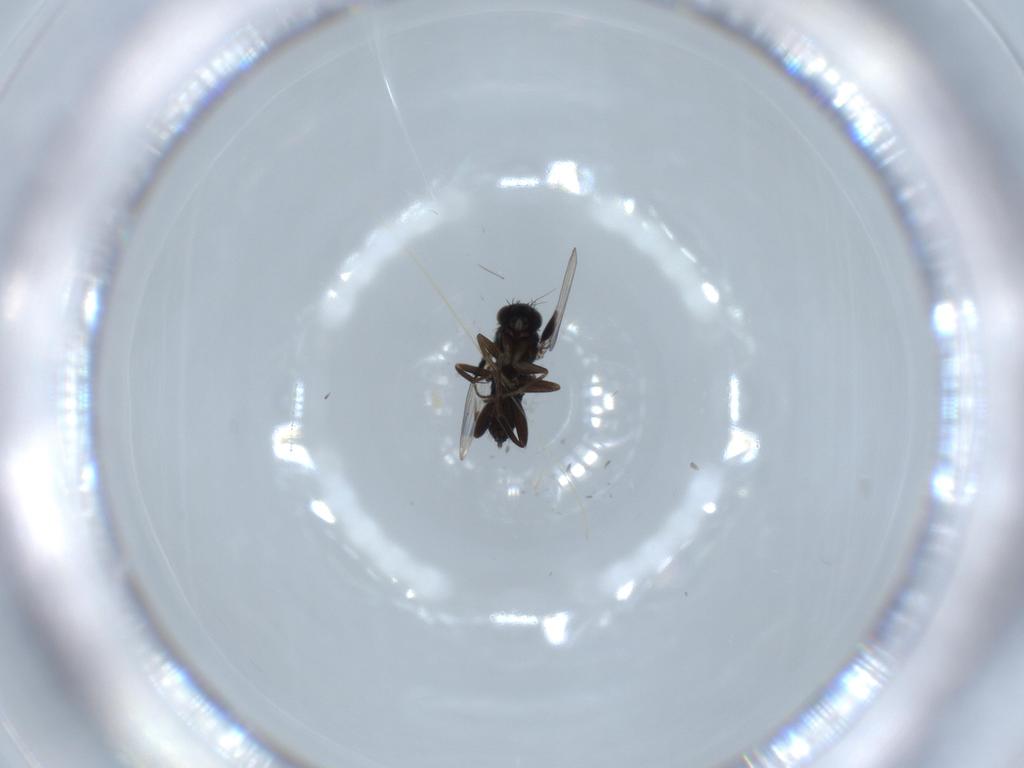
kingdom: Animalia
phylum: Arthropoda
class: Insecta
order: Diptera
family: Phoridae
